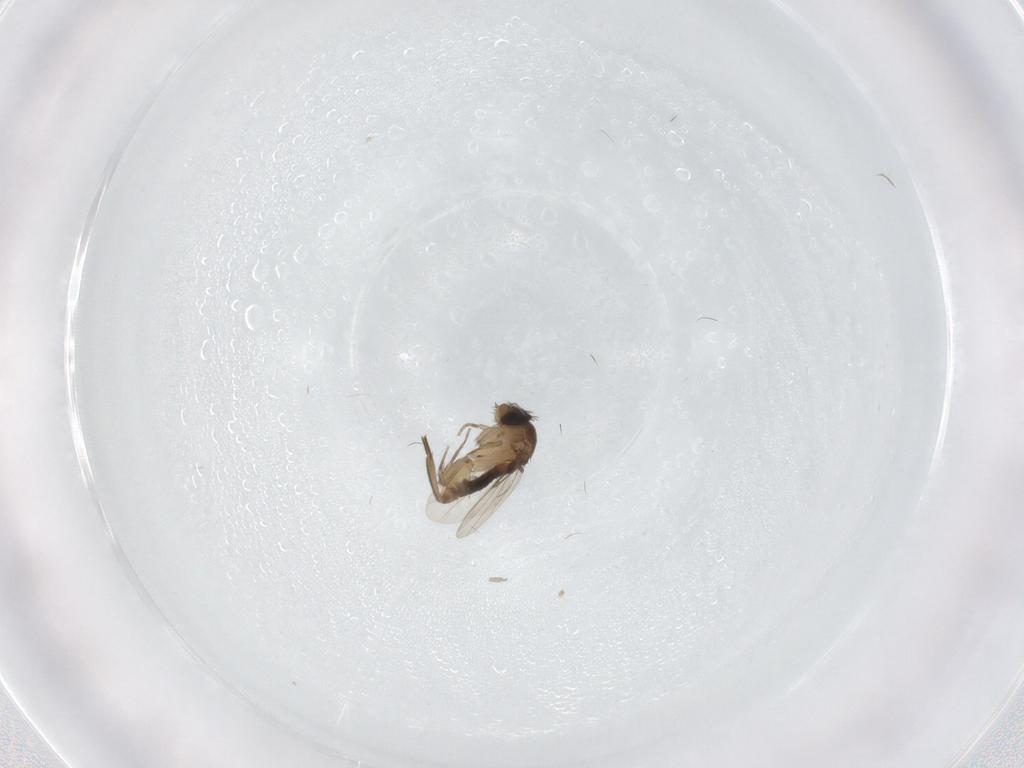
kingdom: Animalia
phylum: Arthropoda
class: Insecta
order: Diptera
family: Phoridae
